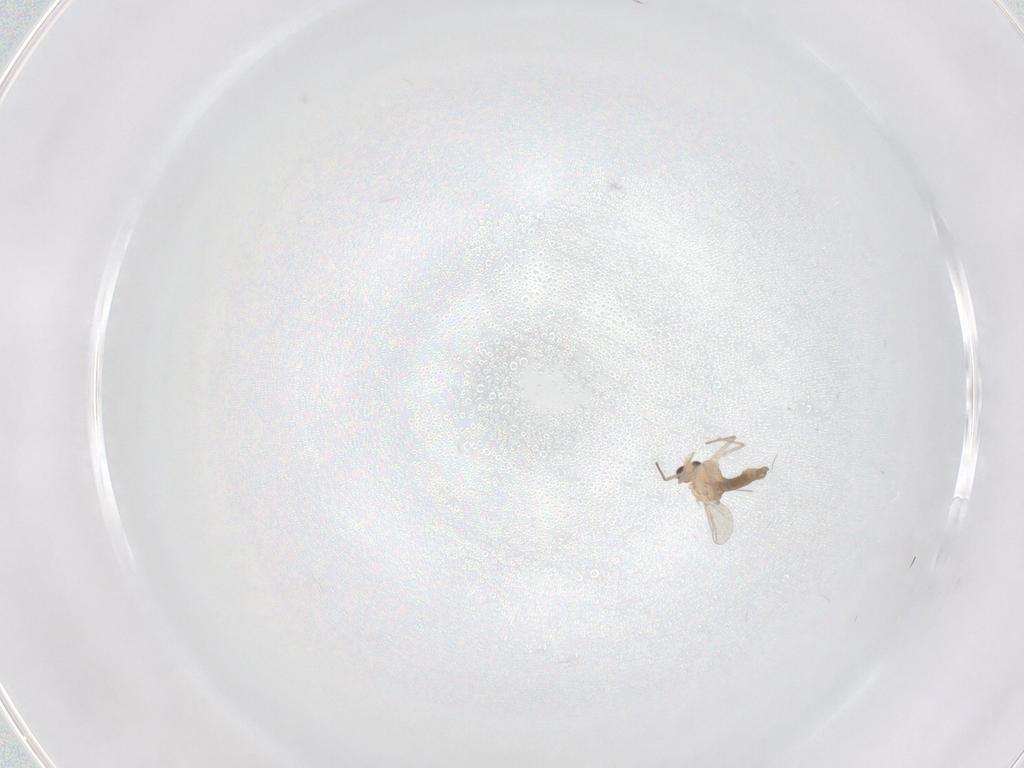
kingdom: Animalia
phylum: Arthropoda
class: Insecta
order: Diptera
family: Chironomidae
